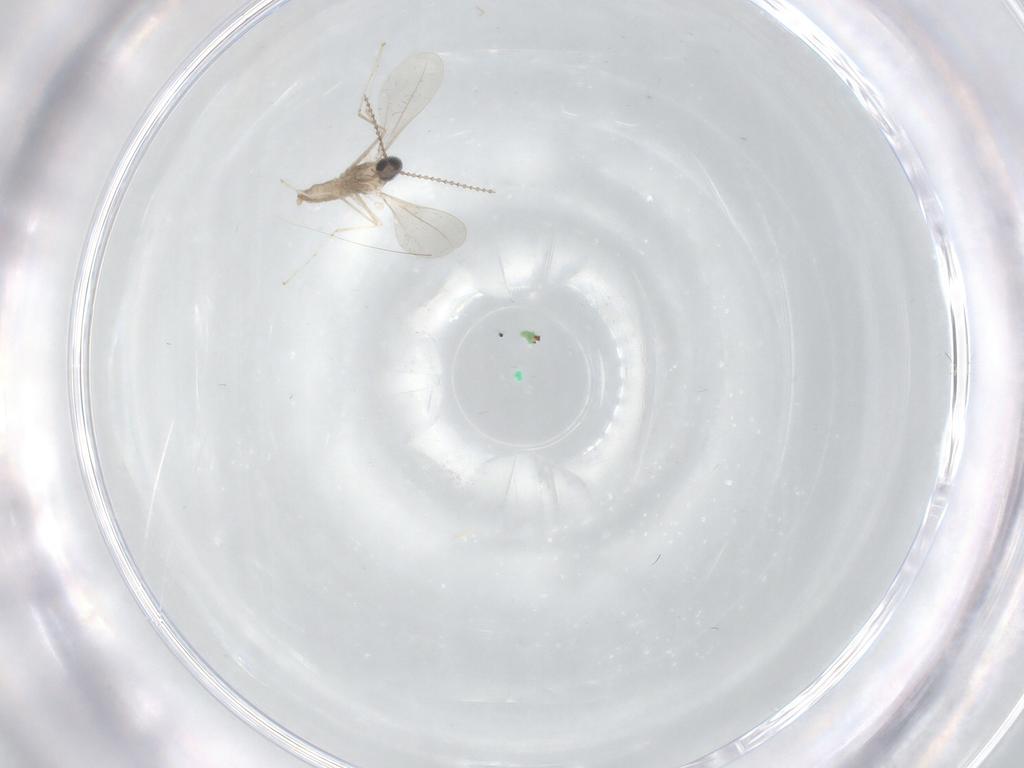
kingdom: Animalia
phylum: Arthropoda
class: Insecta
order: Diptera
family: Cecidomyiidae
